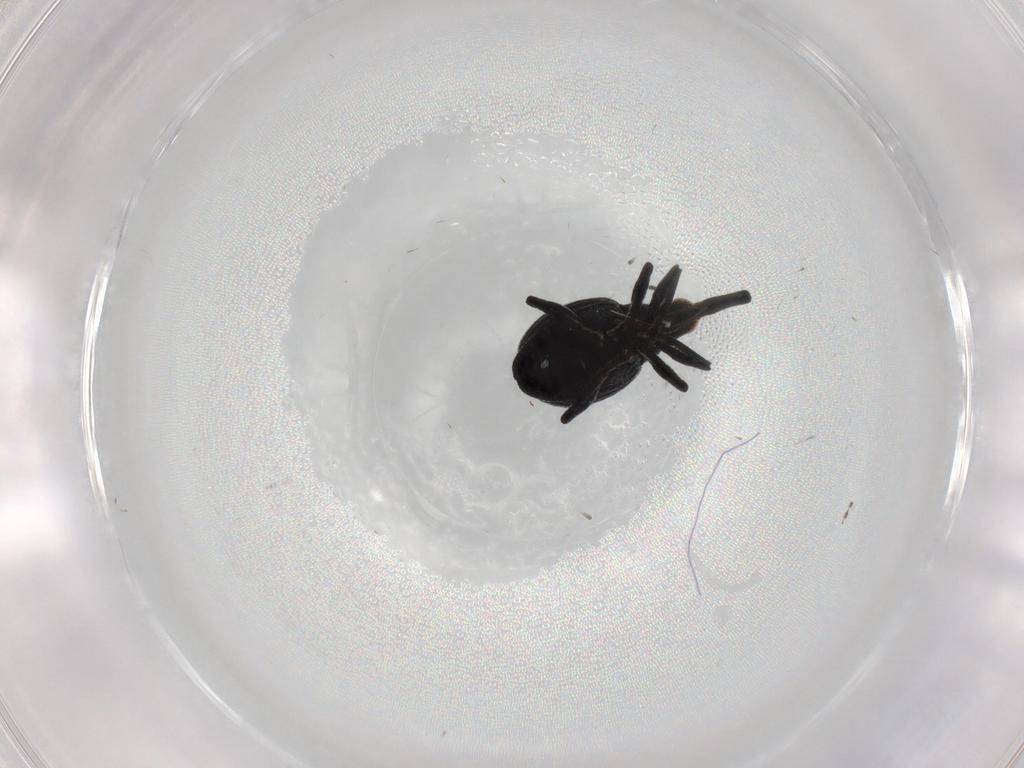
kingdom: Animalia
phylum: Arthropoda
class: Insecta
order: Coleoptera
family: Brentidae
